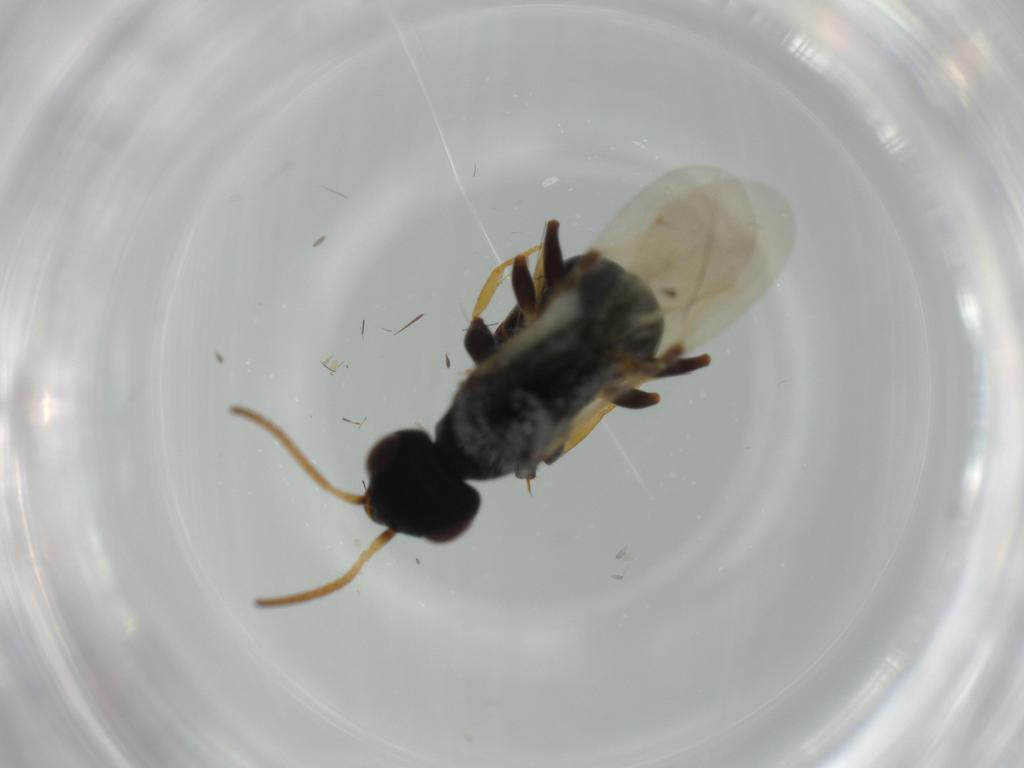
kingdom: Animalia
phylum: Arthropoda
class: Insecta
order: Hymenoptera
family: Bethylidae
